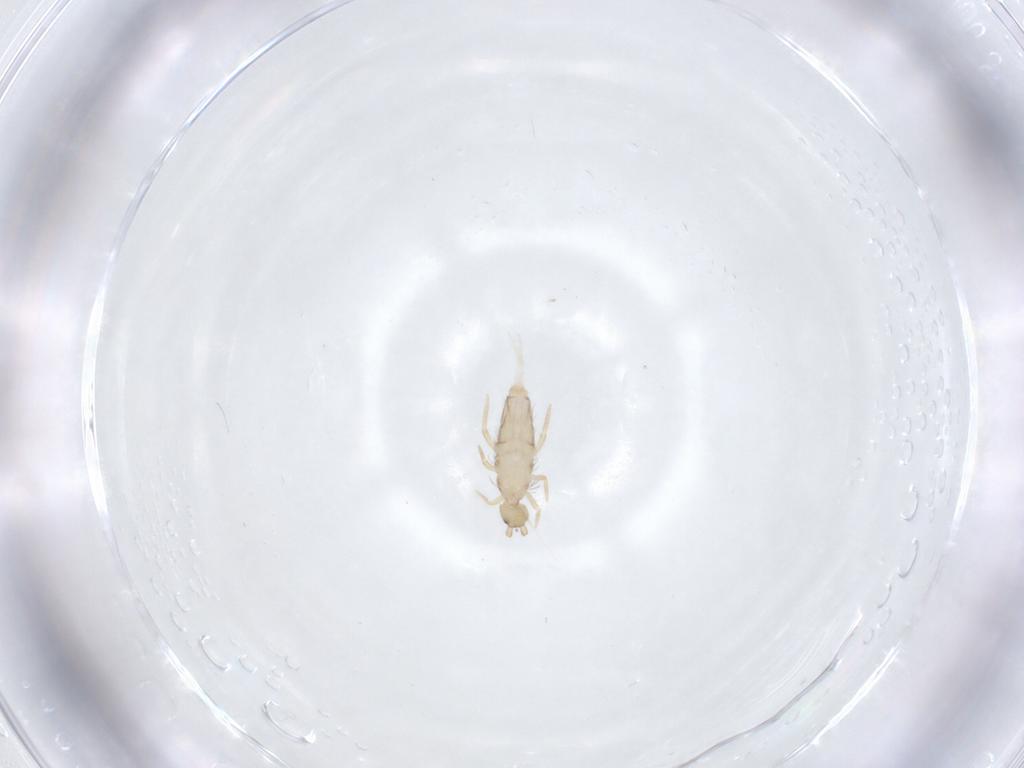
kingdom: Animalia
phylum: Arthropoda
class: Collembola
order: Entomobryomorpha
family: Entomobryidae
